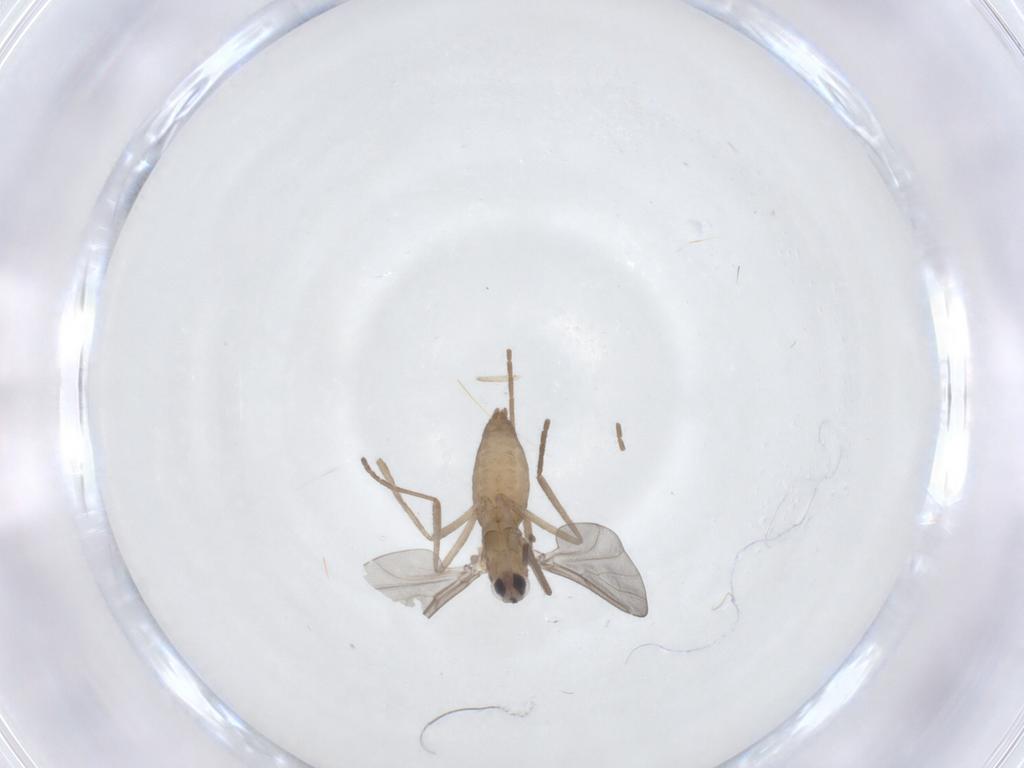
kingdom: Animalia
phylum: Arthropoda
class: Insecta
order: Diptera
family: Cecidomyiidae
